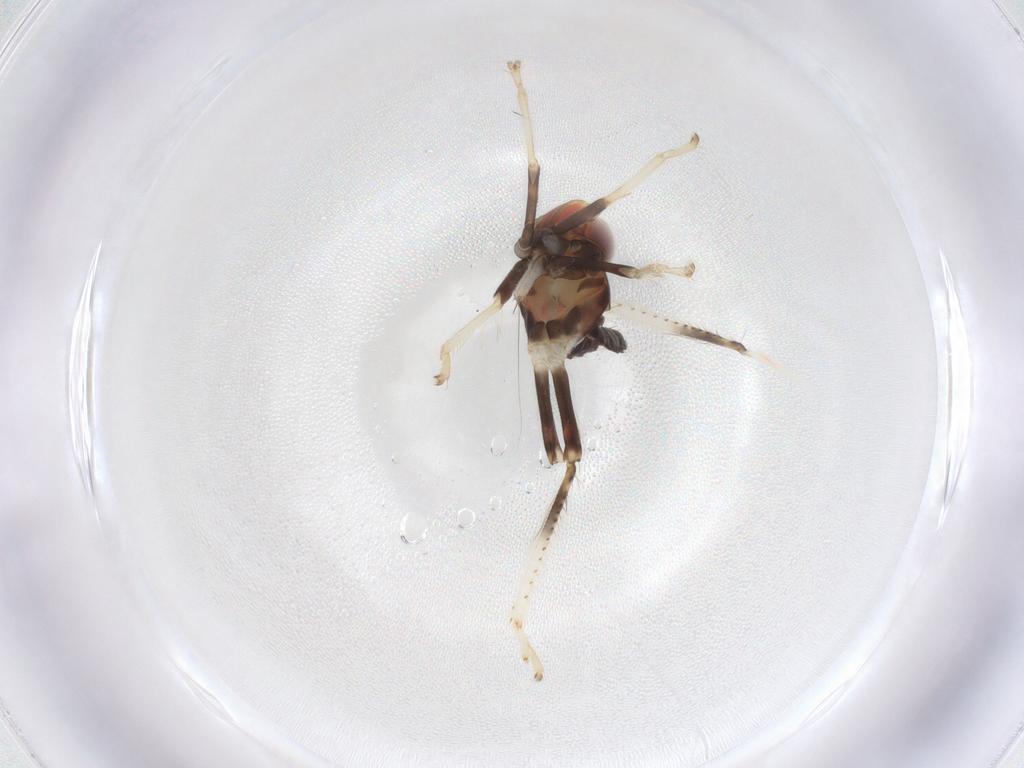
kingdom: Animalia
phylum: Arthropoda
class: Insecta
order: Hemiptera
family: Cicadellidae
